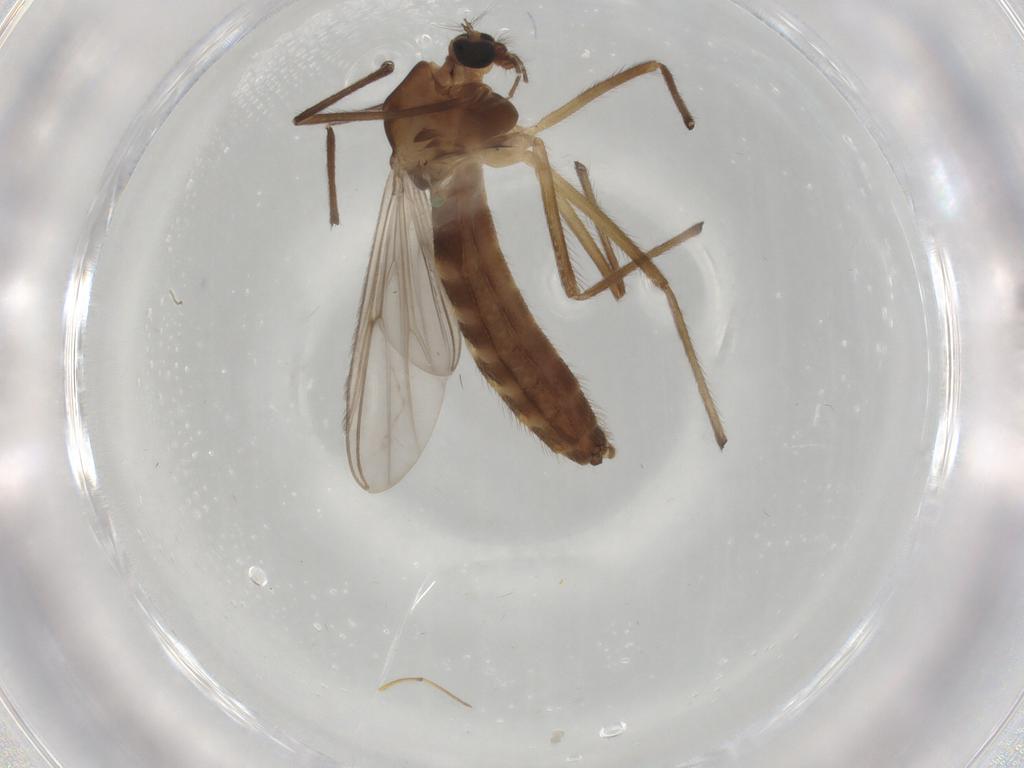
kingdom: Animalia
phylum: Arthropoda
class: Insecta
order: Diptera
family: Chironomidae
